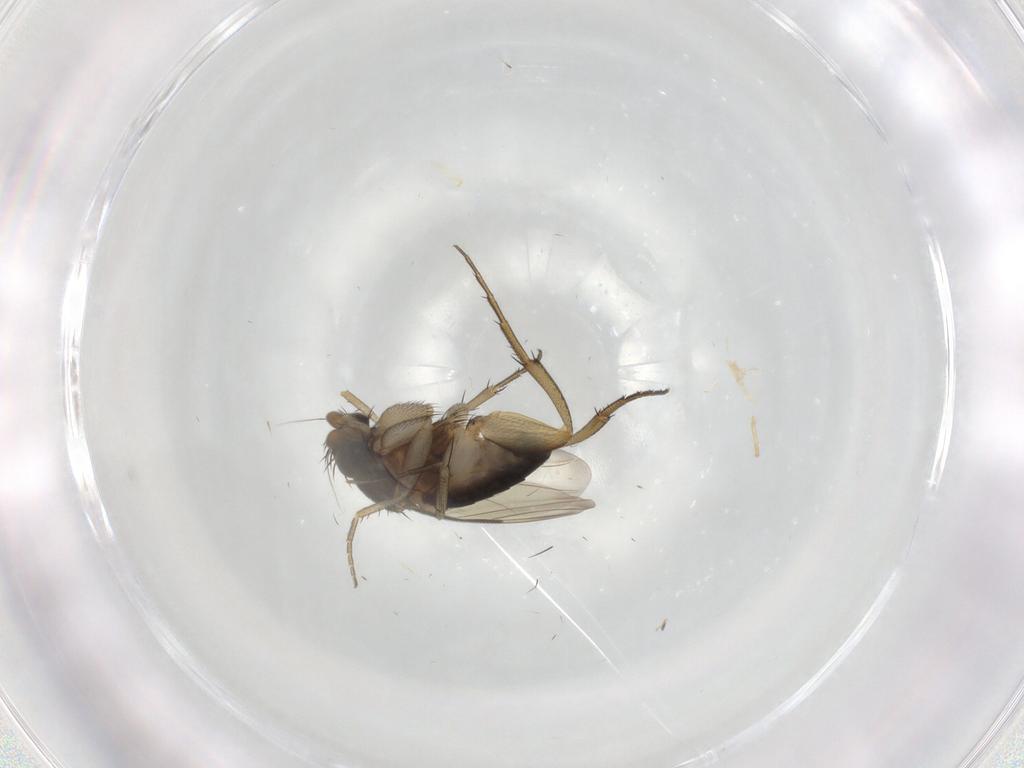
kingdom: Animalia
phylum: Arthropoda
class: Insecta
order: Diptera
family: Phoridae
